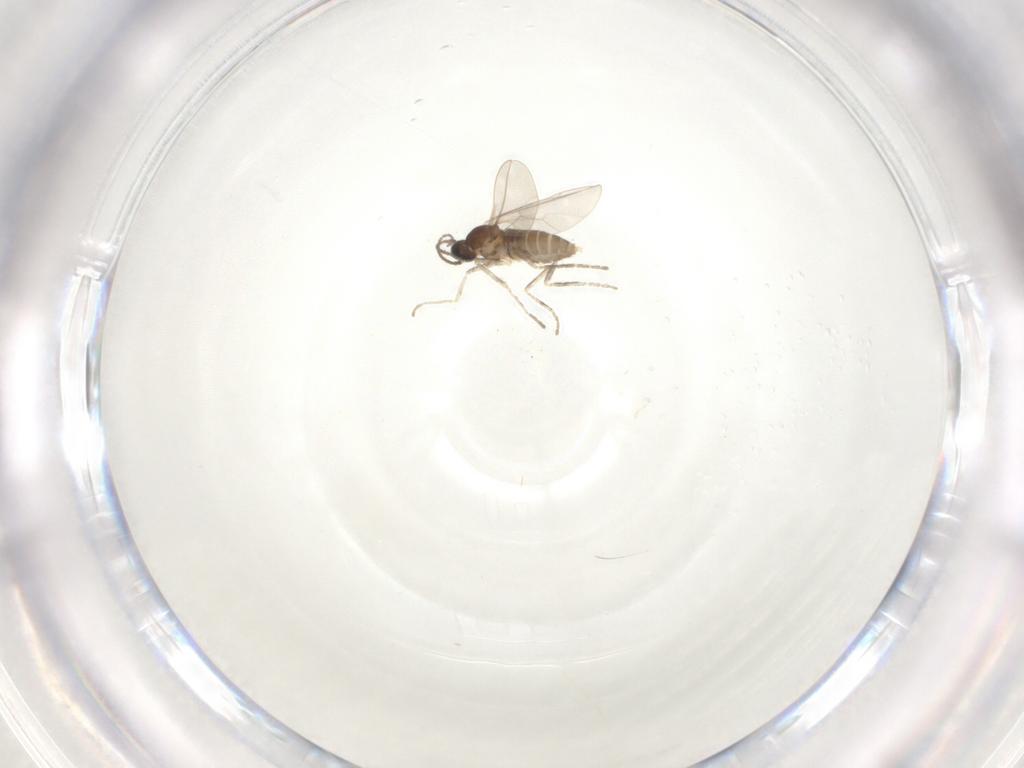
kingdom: Animalia
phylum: Arthropoda
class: Insecta
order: Diptera
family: Cecidomyiidae
